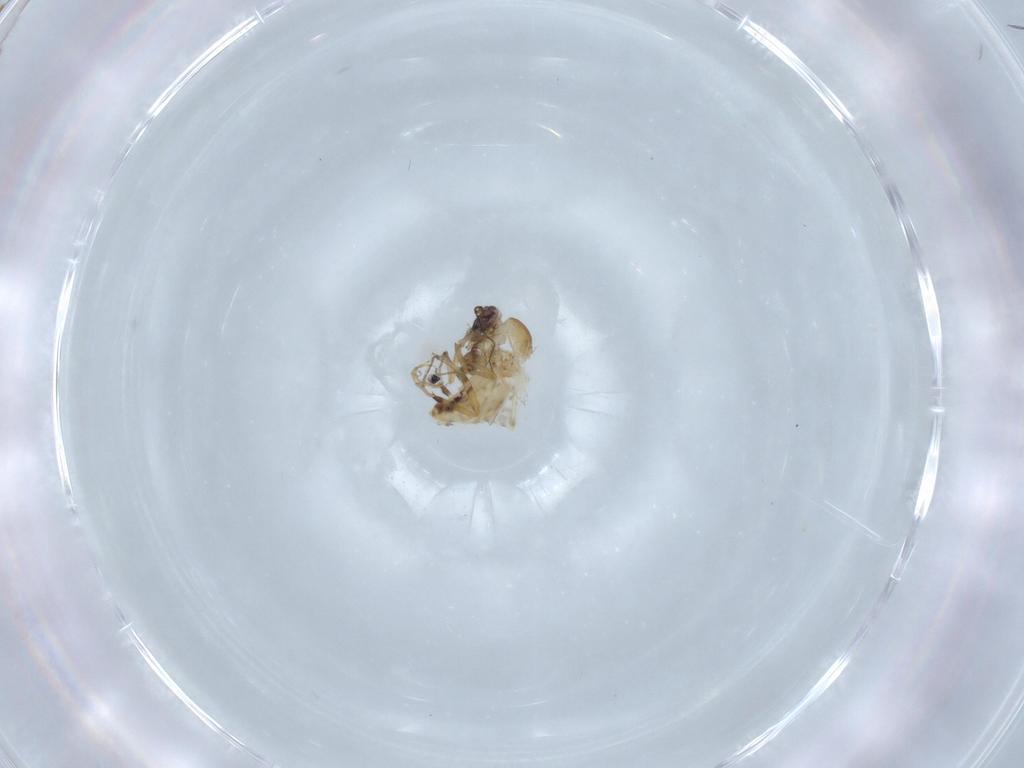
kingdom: Animalia
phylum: Arthropoda
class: Insecta
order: Diptera
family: Ceratopogonidae
